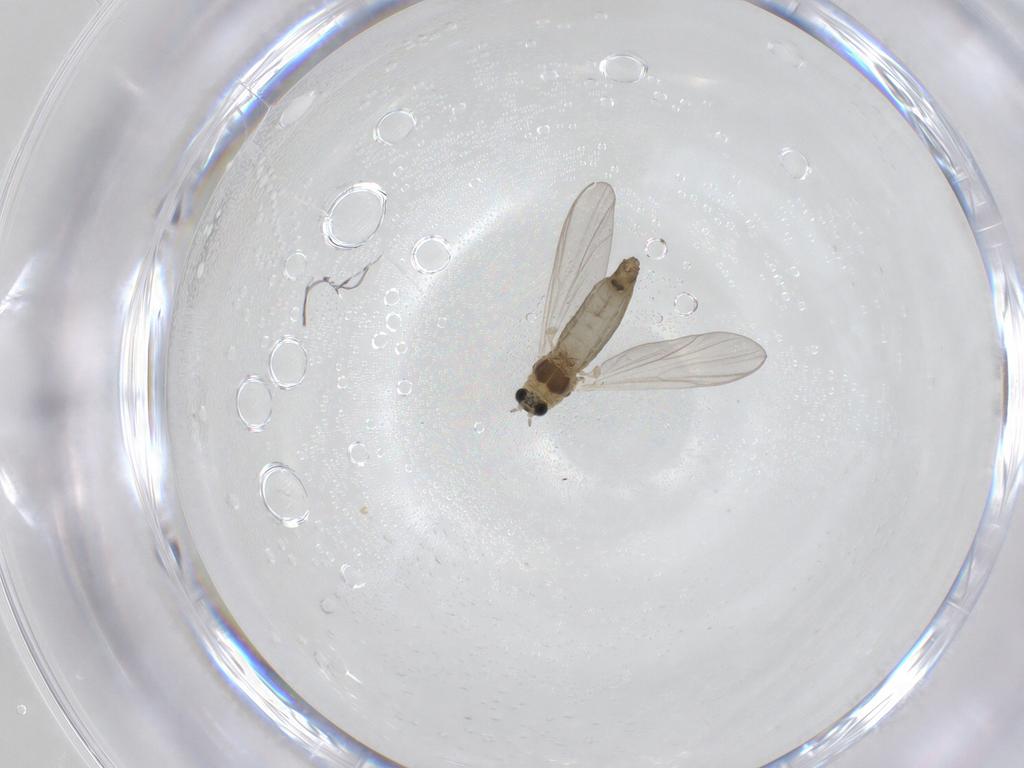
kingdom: Animalia
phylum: Arthropoda
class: Insecta
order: Diptera
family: Chironomidae
